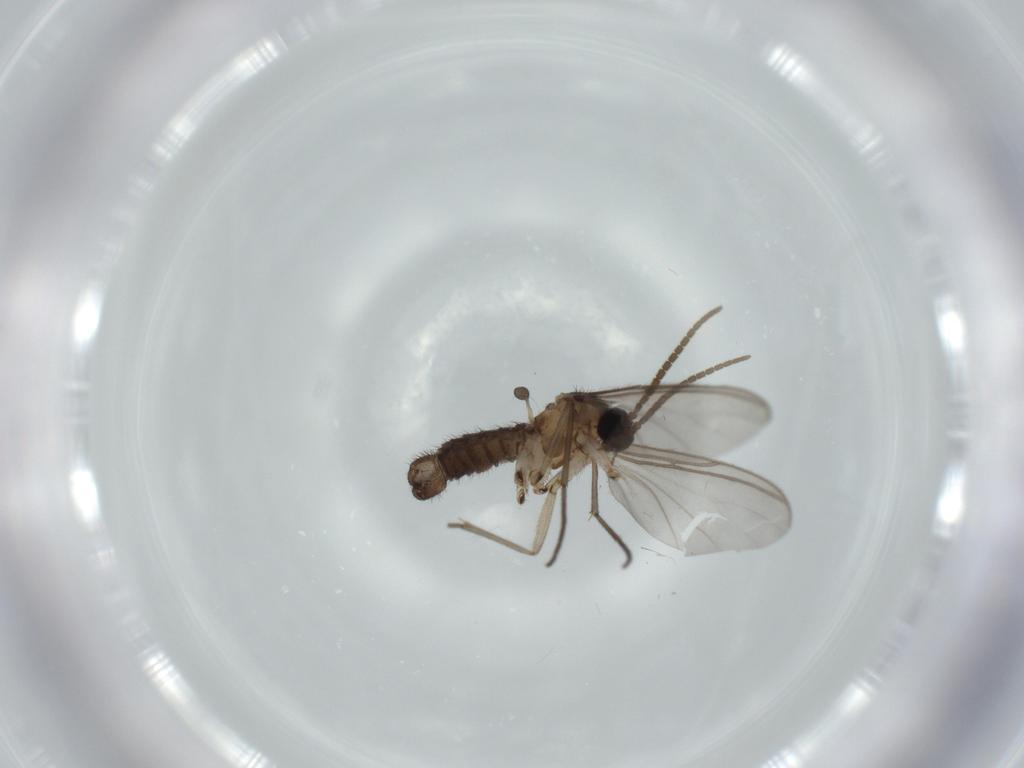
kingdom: Animalia
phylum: Arthropoda
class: Insecta
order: Diptera
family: Sciaridae
